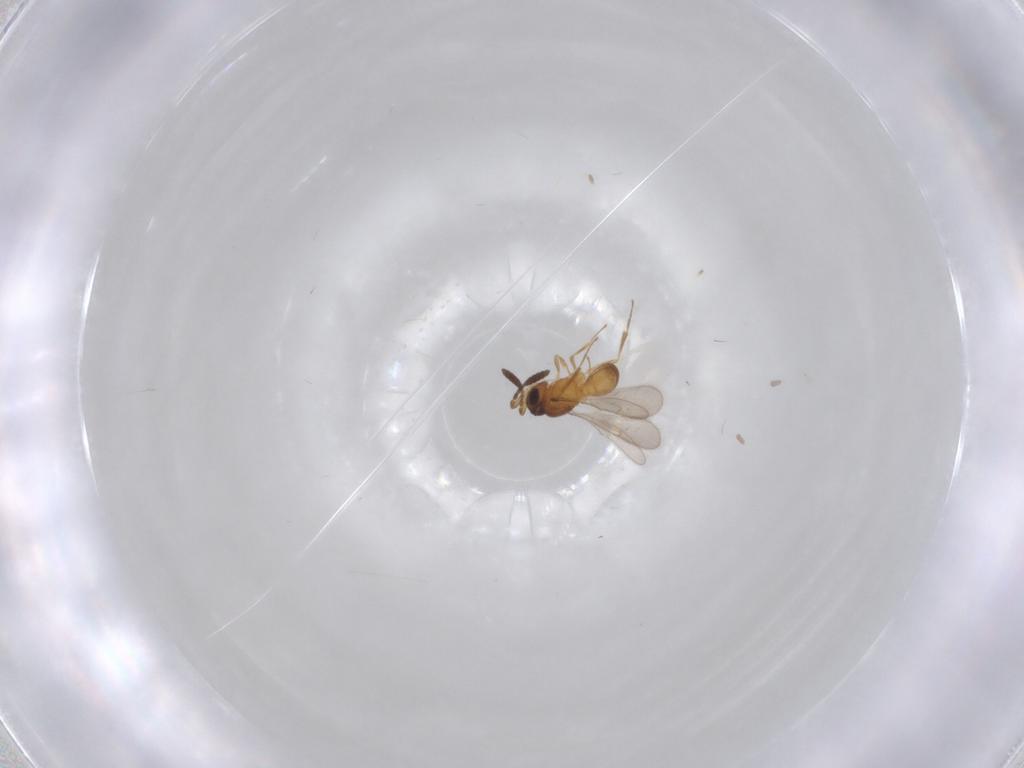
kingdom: Animalia
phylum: Arthropoda
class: Insecta
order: Hymenoptera
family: Scelionidae
